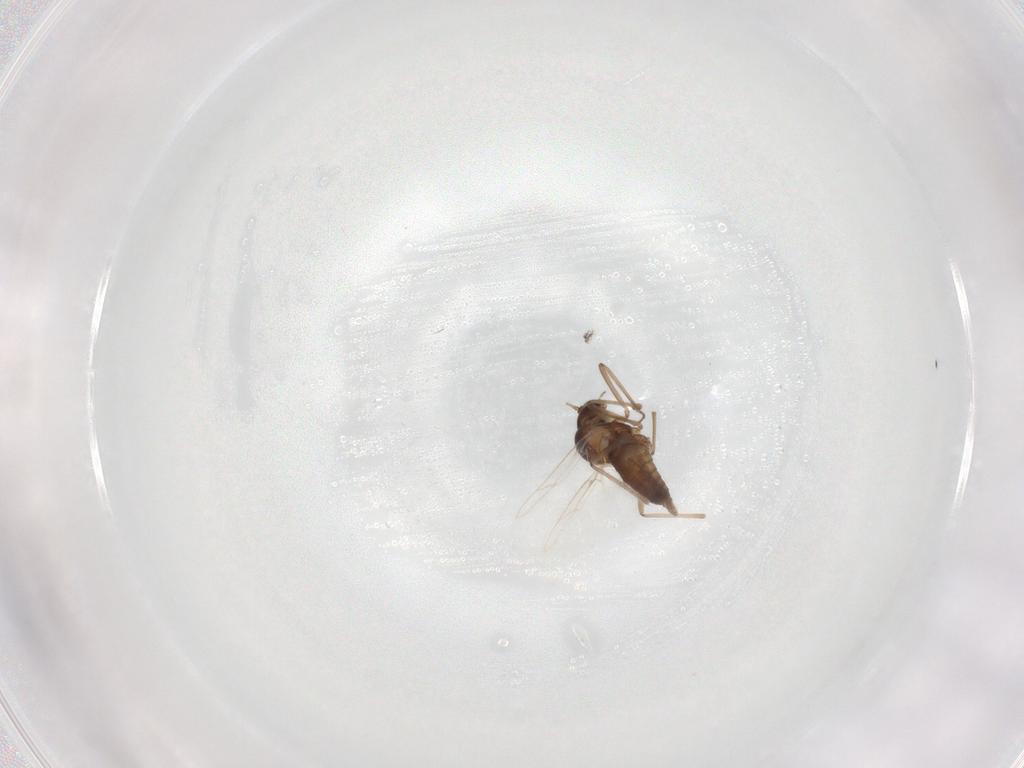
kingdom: Animalia
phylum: Arthropoda
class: Insecta
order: Diptera
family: Cecidomyiidae
